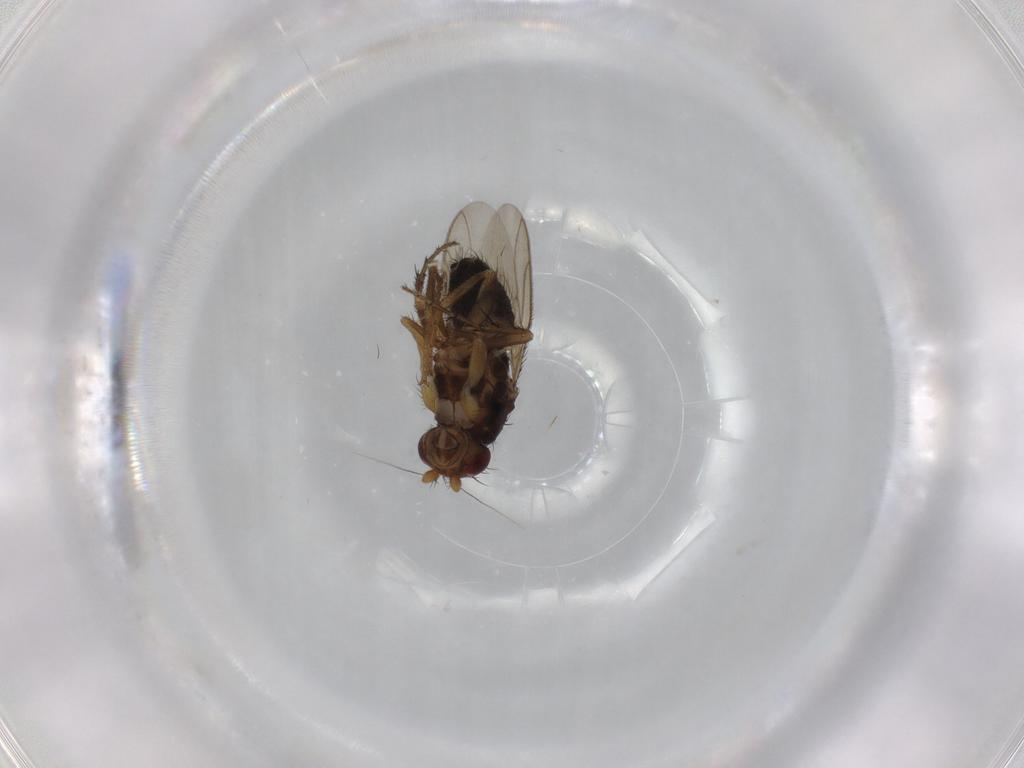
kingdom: Animalia
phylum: Arthropoda
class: Insecta
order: Diptera
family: Sphaeroceridae
